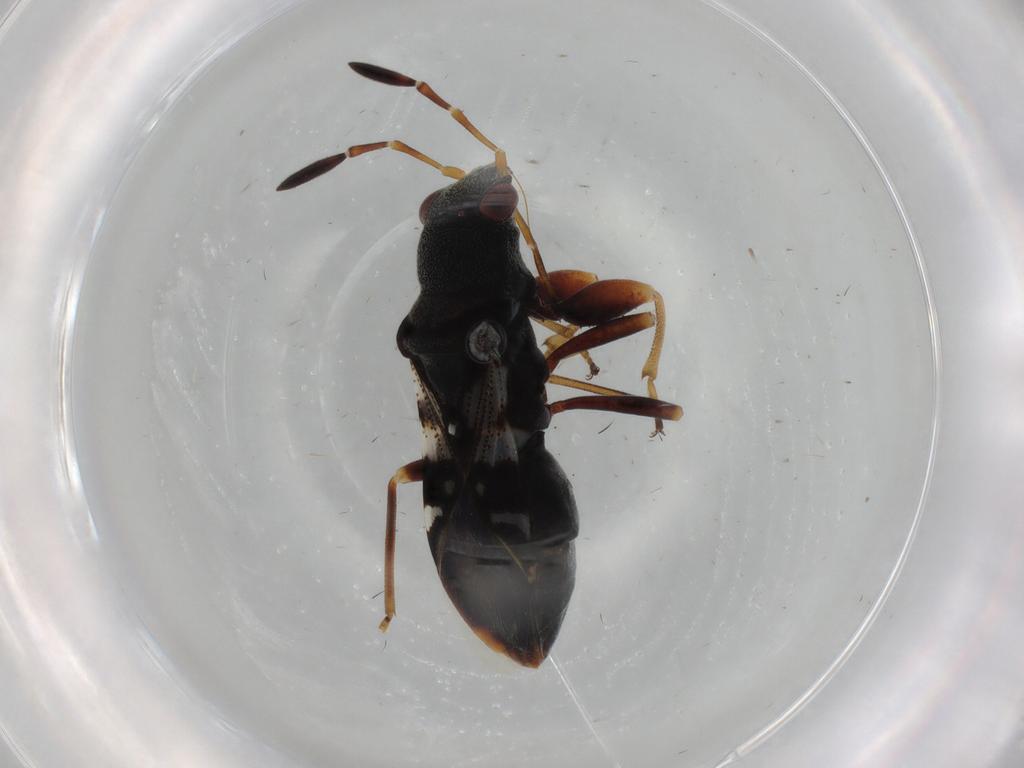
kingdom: Animalia
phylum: Arthropoda
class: Insecta
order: Hemiptera
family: Rhyparochromidae
